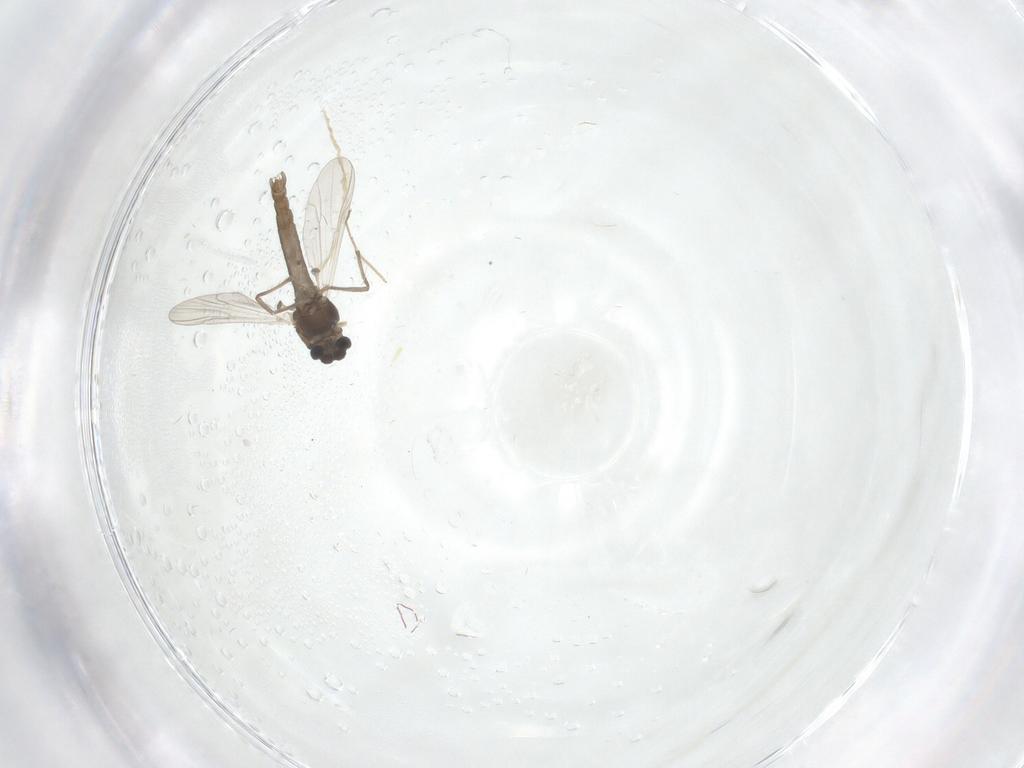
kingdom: Animalia
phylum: Arthropoda
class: Insecta
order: Diptera
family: Chironomidae
